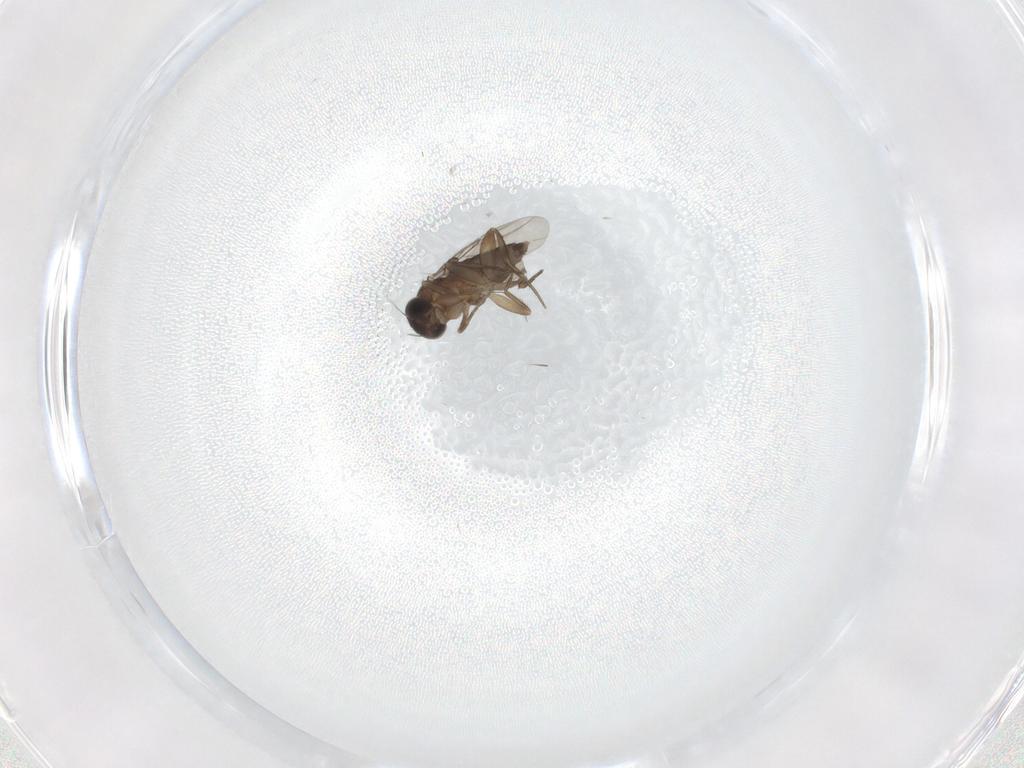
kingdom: Animalia
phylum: Arthropoda
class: Insecta
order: Diptera
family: Phoridae
